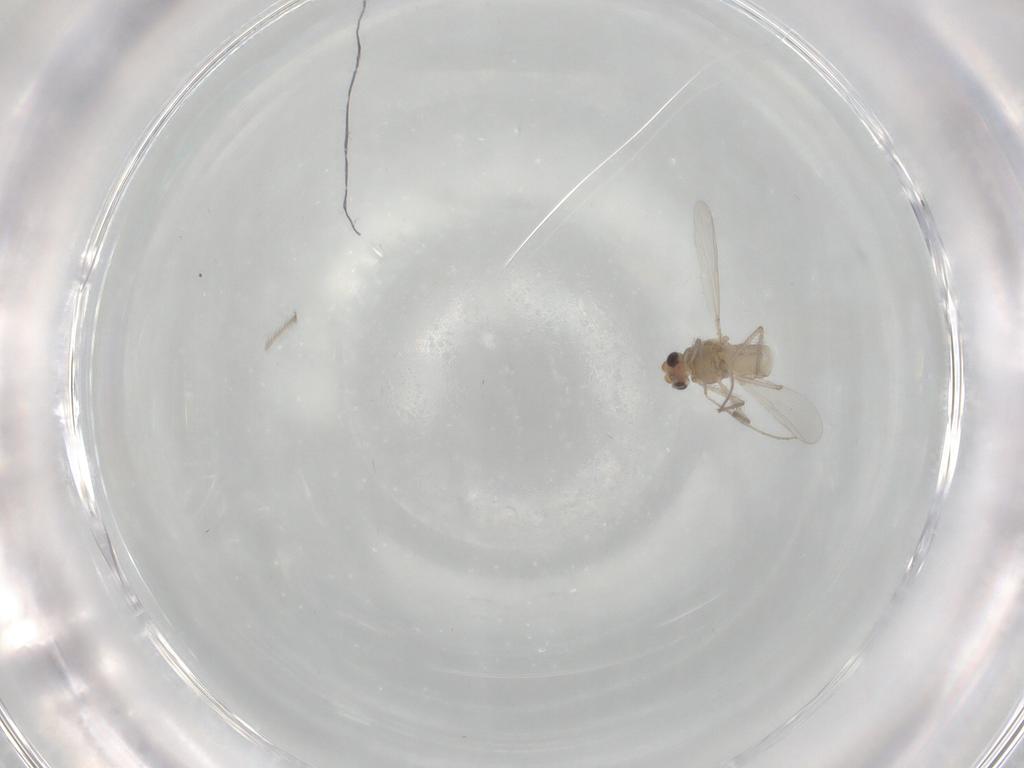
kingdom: Animalia
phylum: Arthropoda
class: Insecta
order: Diptera
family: Chironomidae
